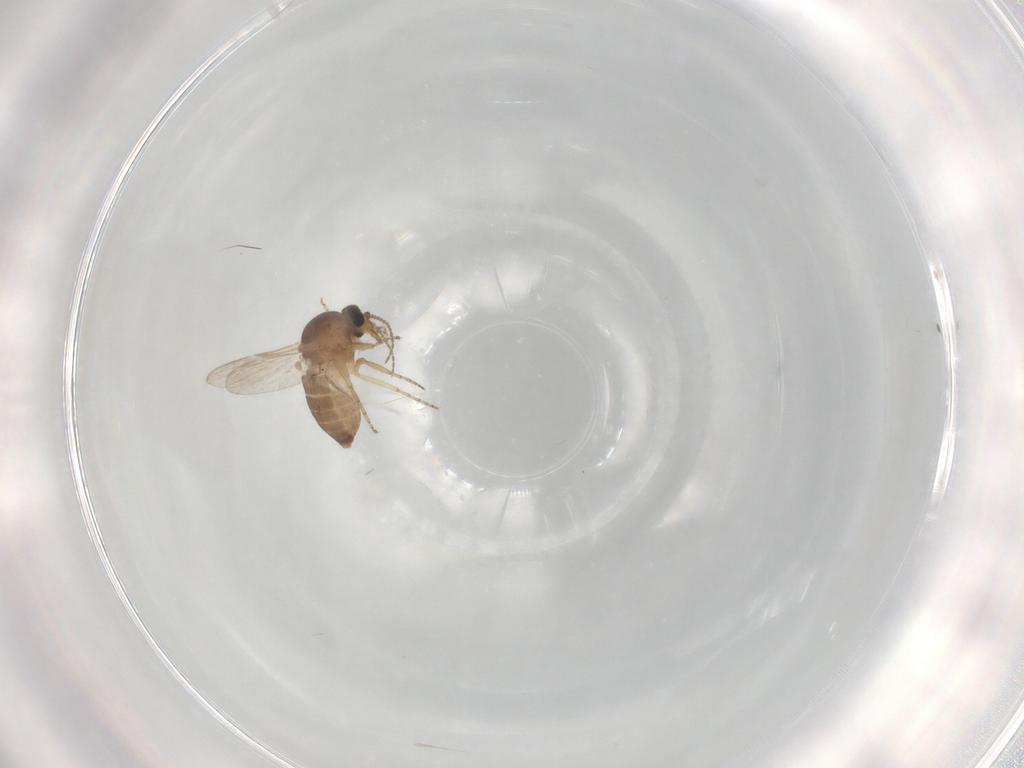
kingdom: Animalia
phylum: Arthropoda
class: Insecta
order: Diptera
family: Ceratopogonidae
